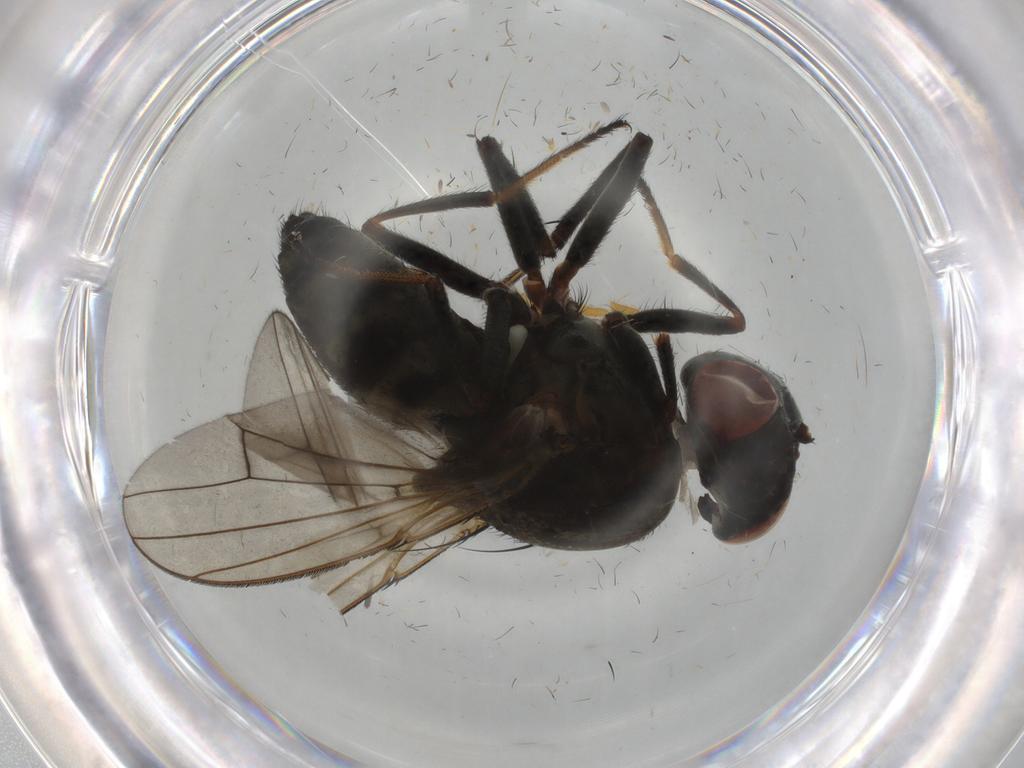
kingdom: Animalia
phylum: Arthropoda
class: Insecta
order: Diptera
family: Ephydridae
